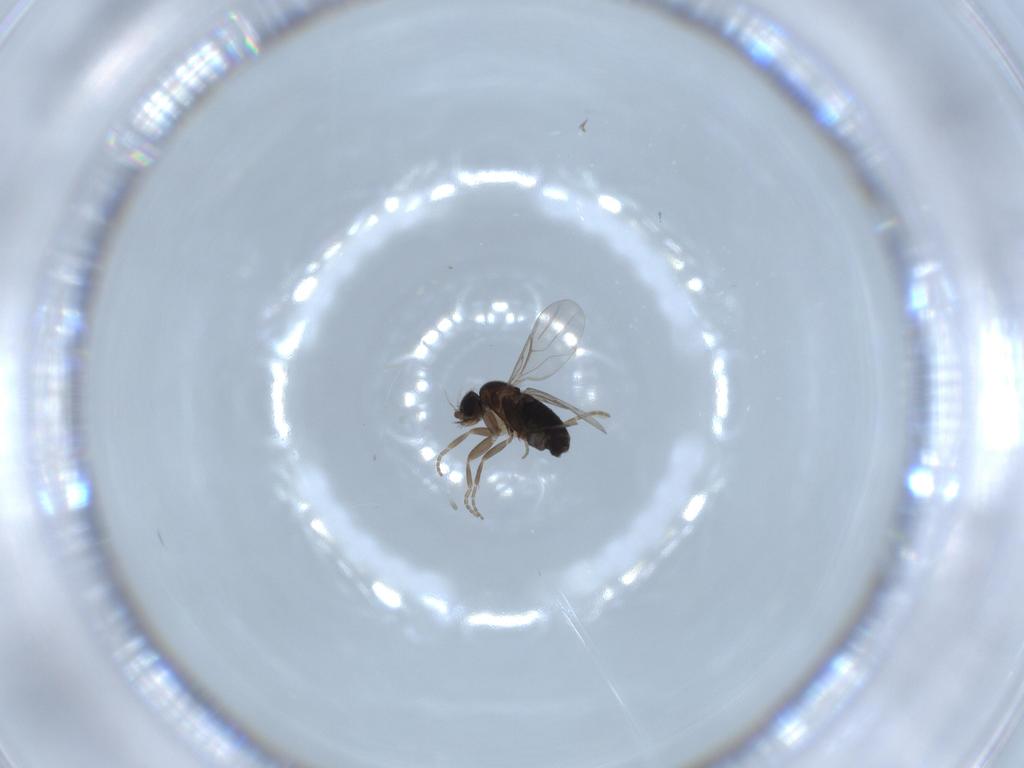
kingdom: Animalia
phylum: Arthropoda
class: Insecta
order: Diptera
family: Phoridae
